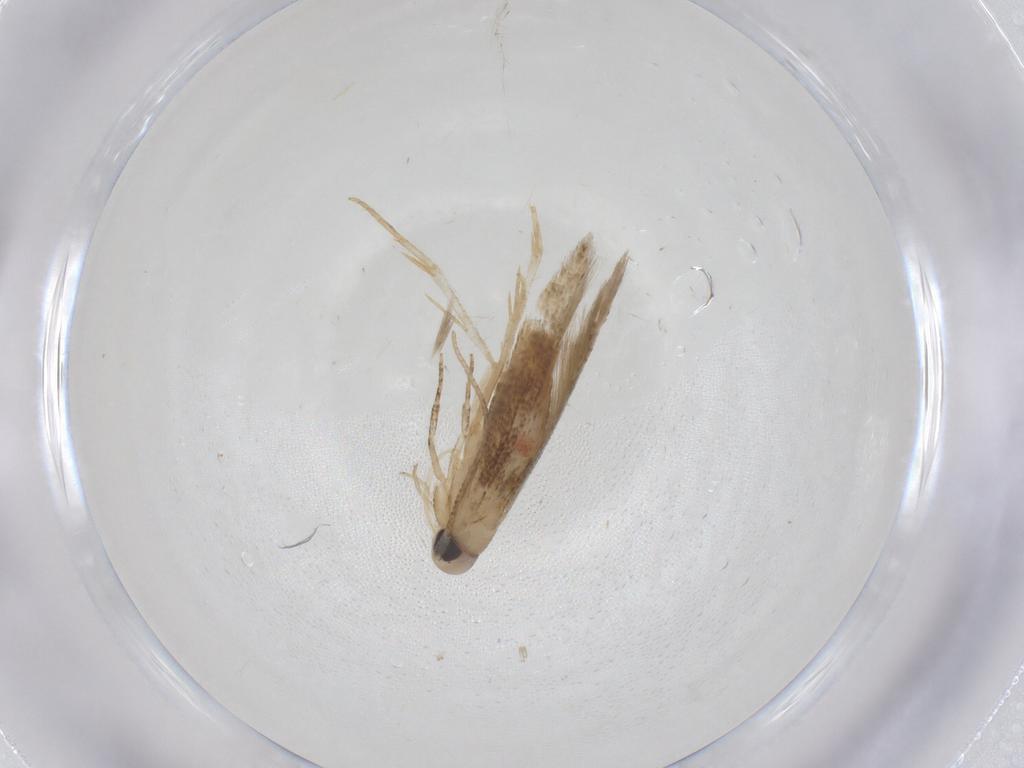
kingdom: Animalia
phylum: Arthropoda
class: Insecta
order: Lepidoptera
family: Cosmopterigidae
